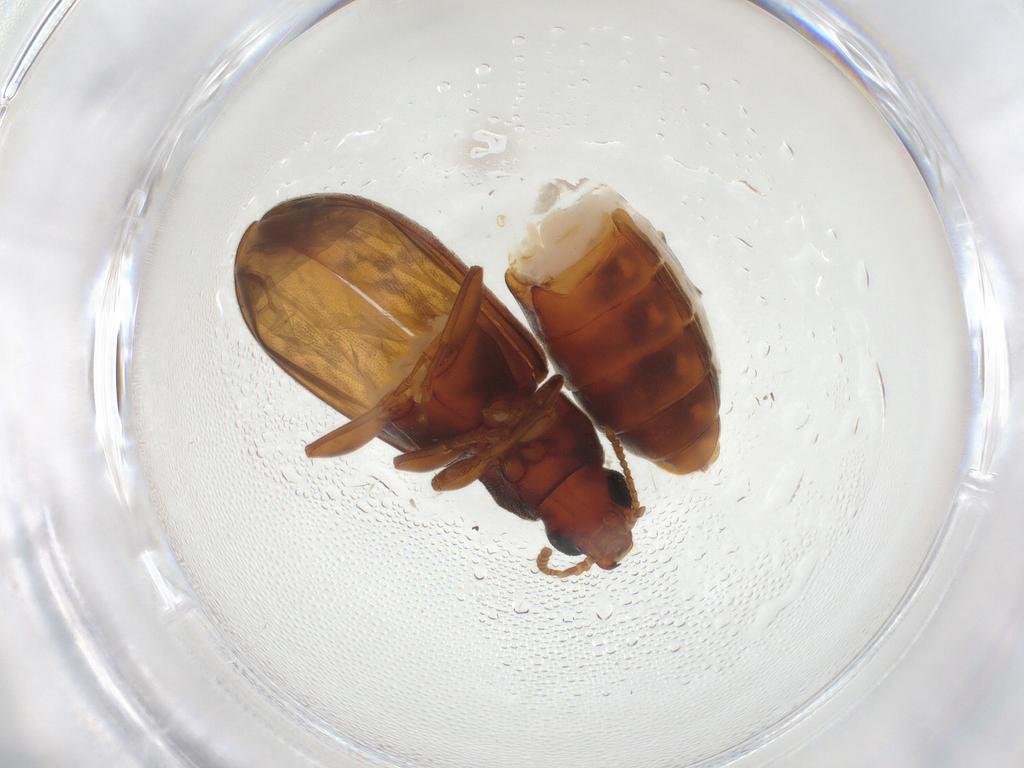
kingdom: Animalia
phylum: Arthropoda
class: Insecta
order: Coleoptera
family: Mycteridae
